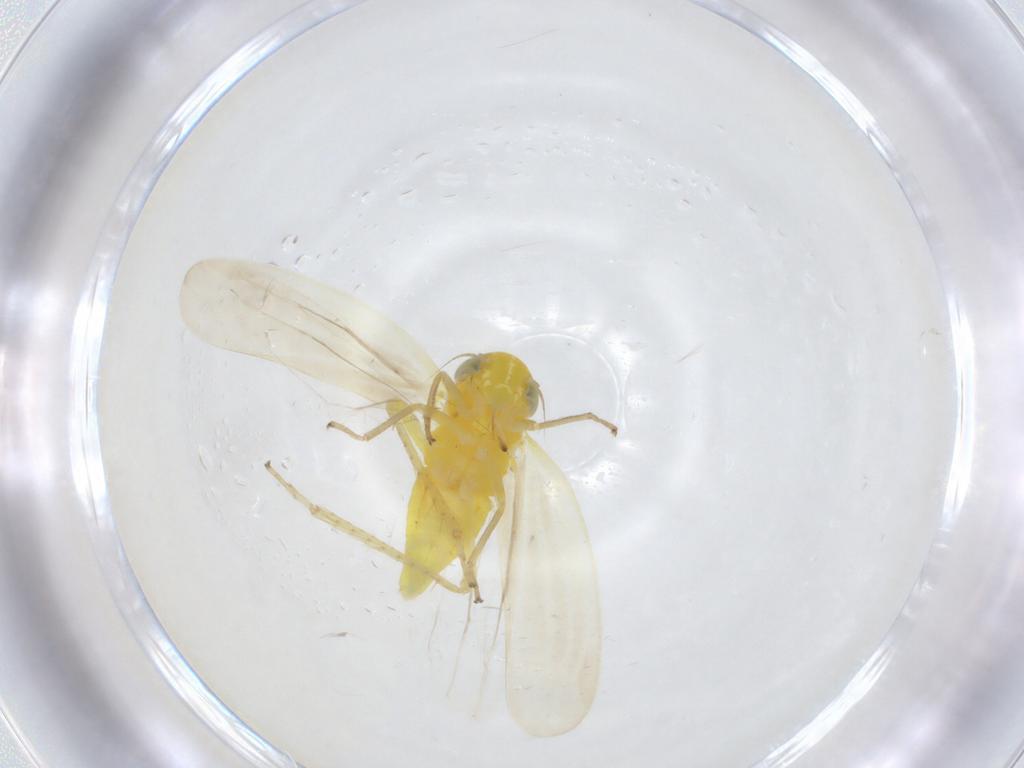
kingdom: Animalia
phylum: Arthropoda
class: Insecta
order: Hemiptera
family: Cicadellidae
